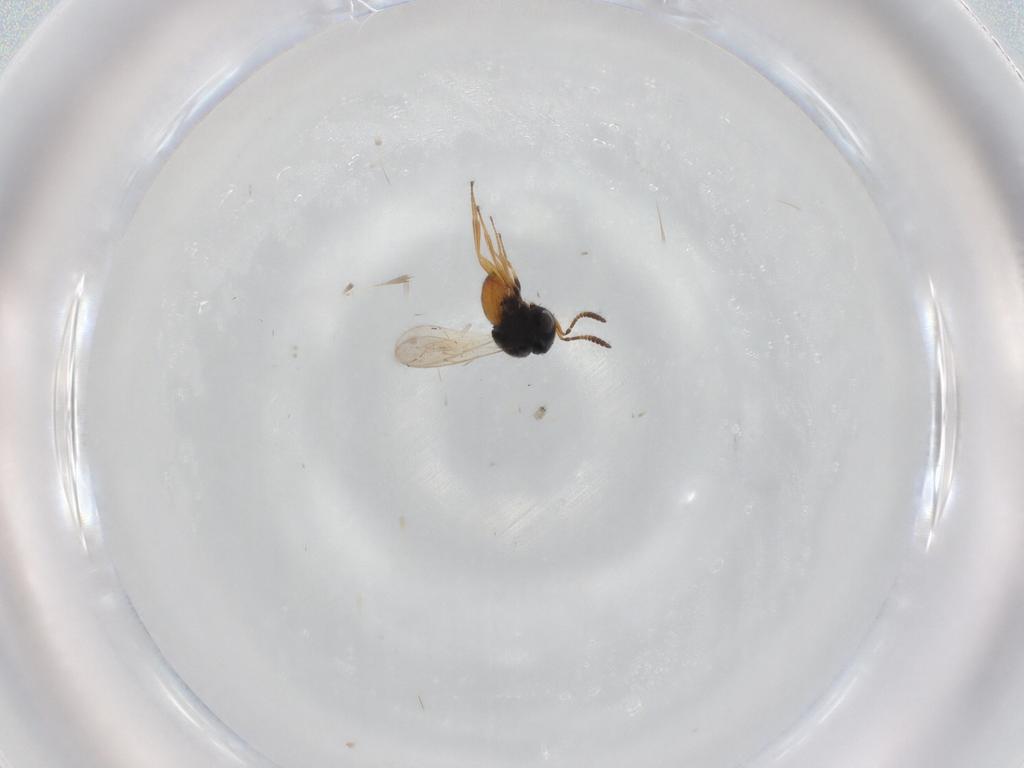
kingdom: Animalia
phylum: Arthropoda
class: Insecta
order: Hymenoptera
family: Scelionidae
